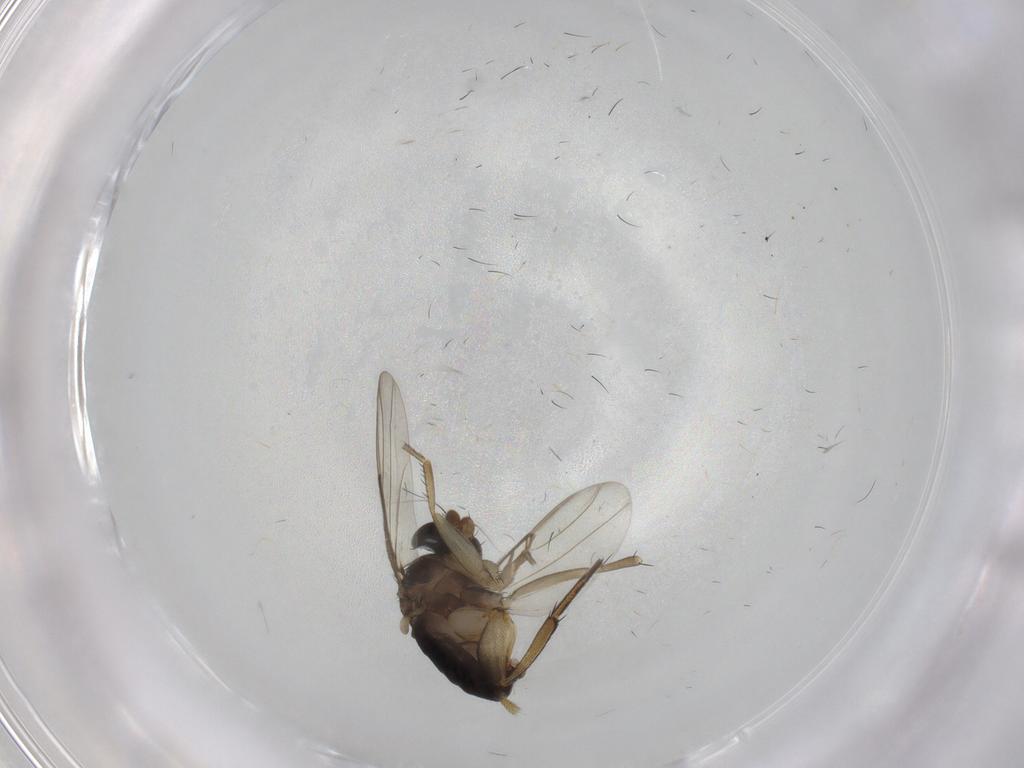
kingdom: Animalia
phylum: Arthropoda
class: Insecta
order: Diptera
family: Phoridae
